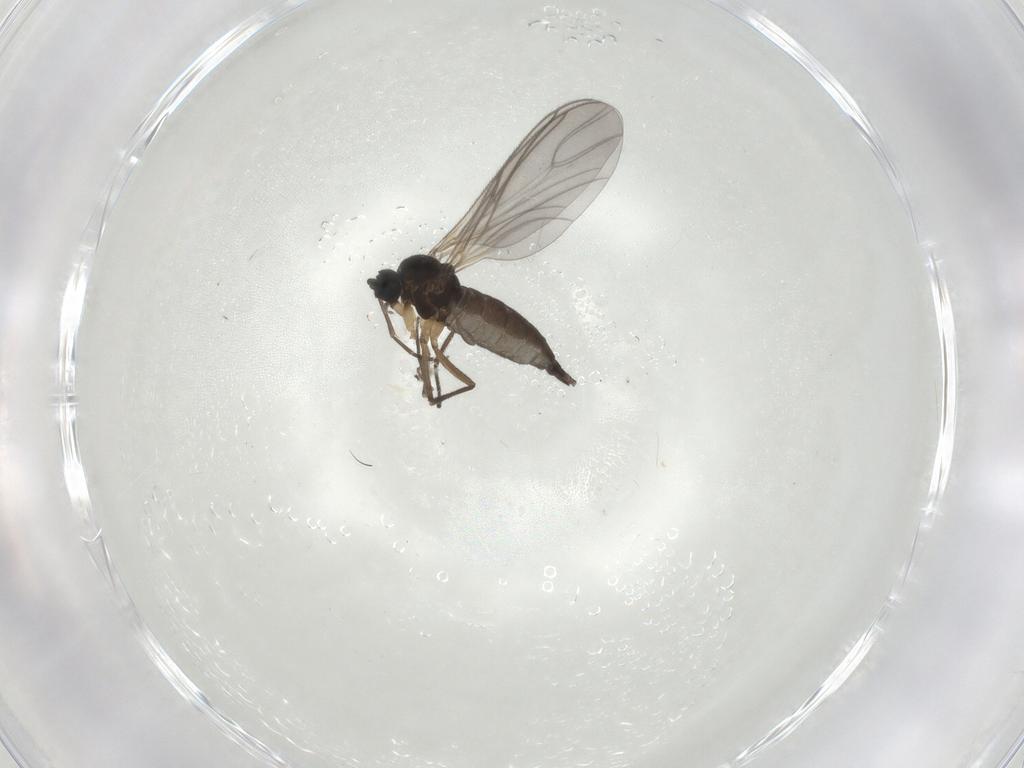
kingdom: Animalia
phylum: Arthropoda
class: Insecta
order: Diptera
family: Sciaridae
